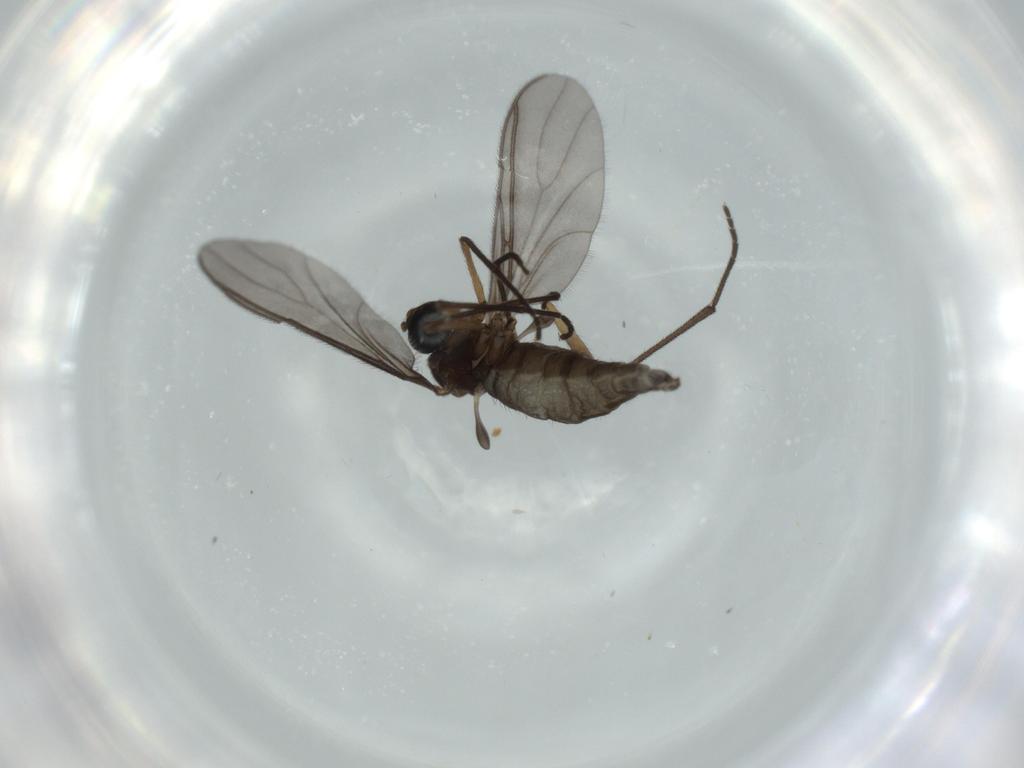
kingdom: Animalia
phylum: Arthropoda
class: Insecta
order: Diptera
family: Sciaridae
